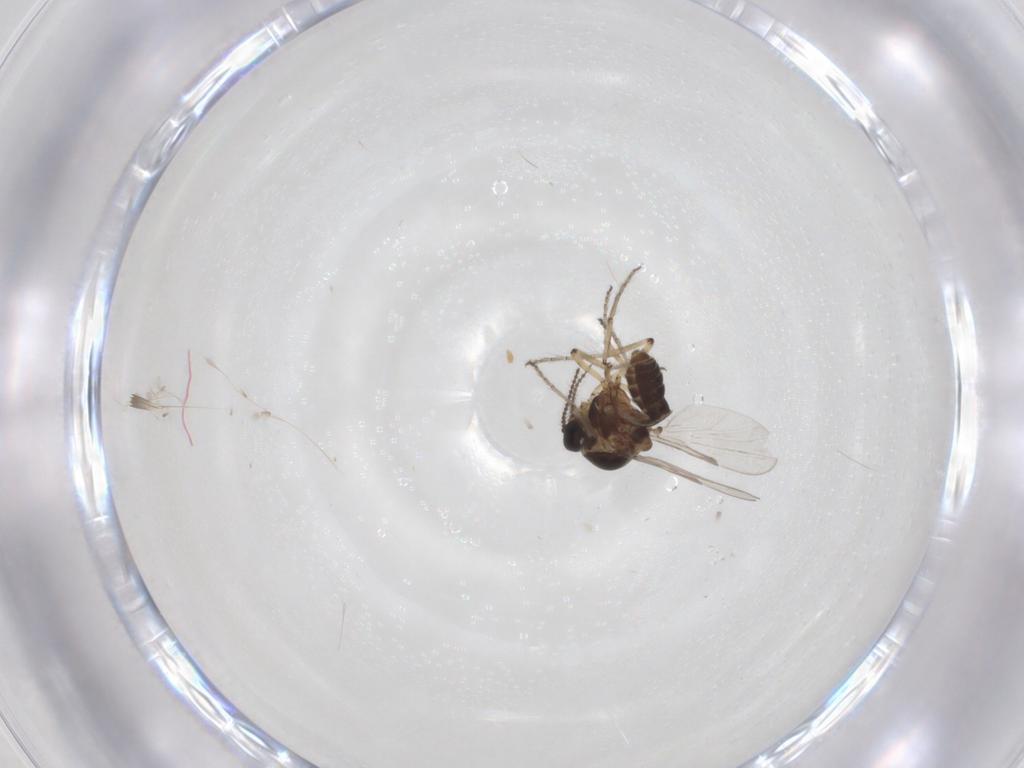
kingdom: Animalia
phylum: Arthropoda
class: Insecta
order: Diptera
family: Ceratopogonidae
